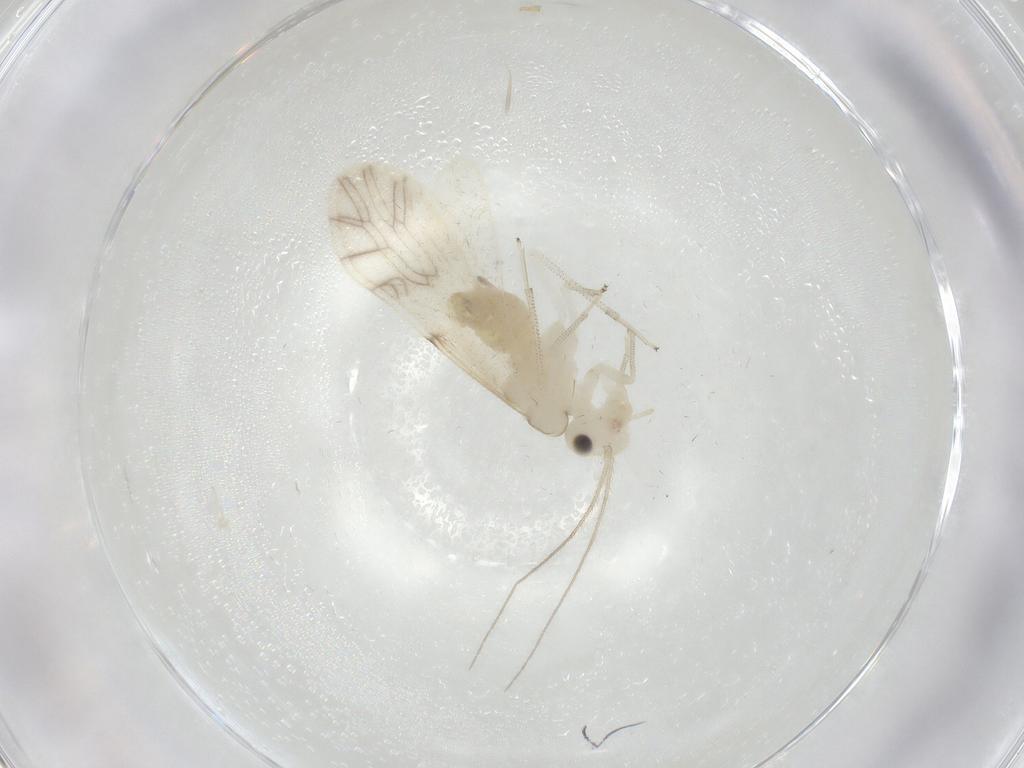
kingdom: Animalia
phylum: Arthropoda
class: Insecta
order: Psocodea
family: Caeciliusidae
